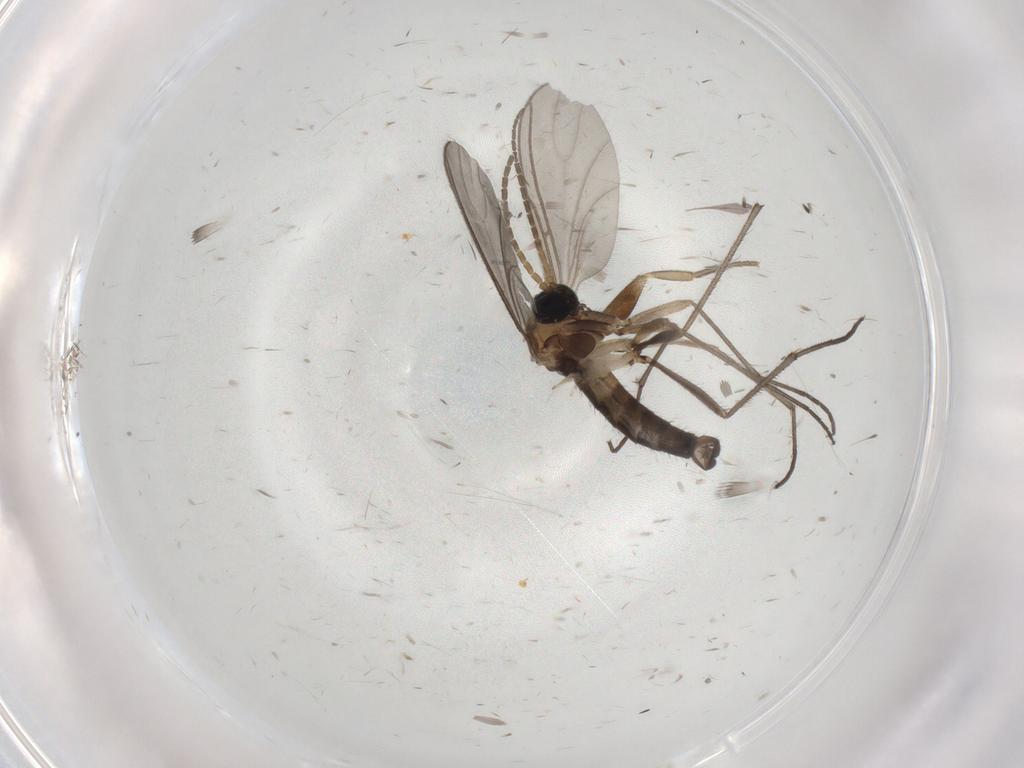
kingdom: Animalia
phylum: Arthropoda
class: Insecta
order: Diptera
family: Sciaridae
